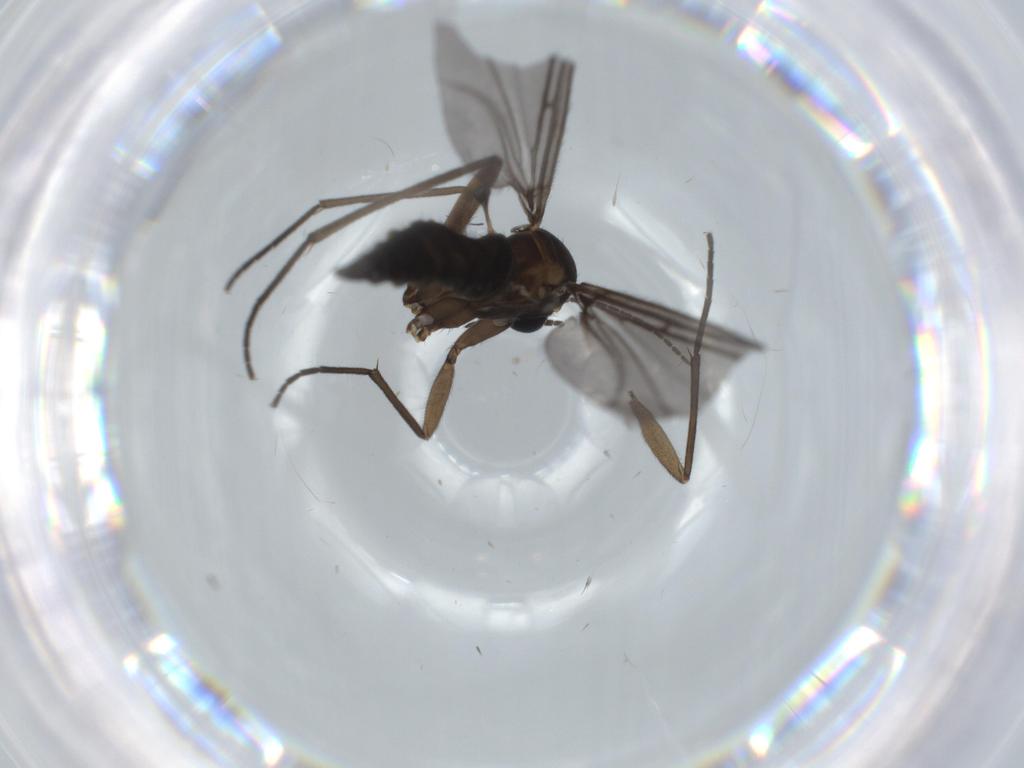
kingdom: Animalia
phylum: Arthropoda
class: Insecta
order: Diptera
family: Sciaridae
